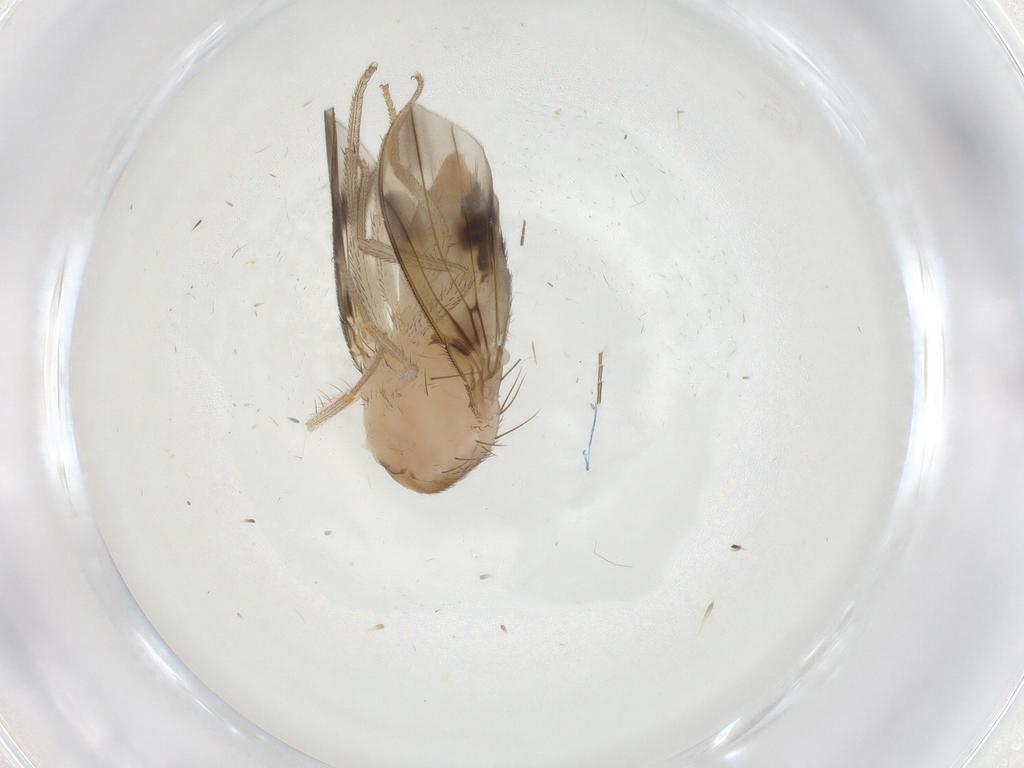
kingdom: Animalia
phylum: Arthropoda
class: Insecta
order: Diptera
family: Drosophilidae
